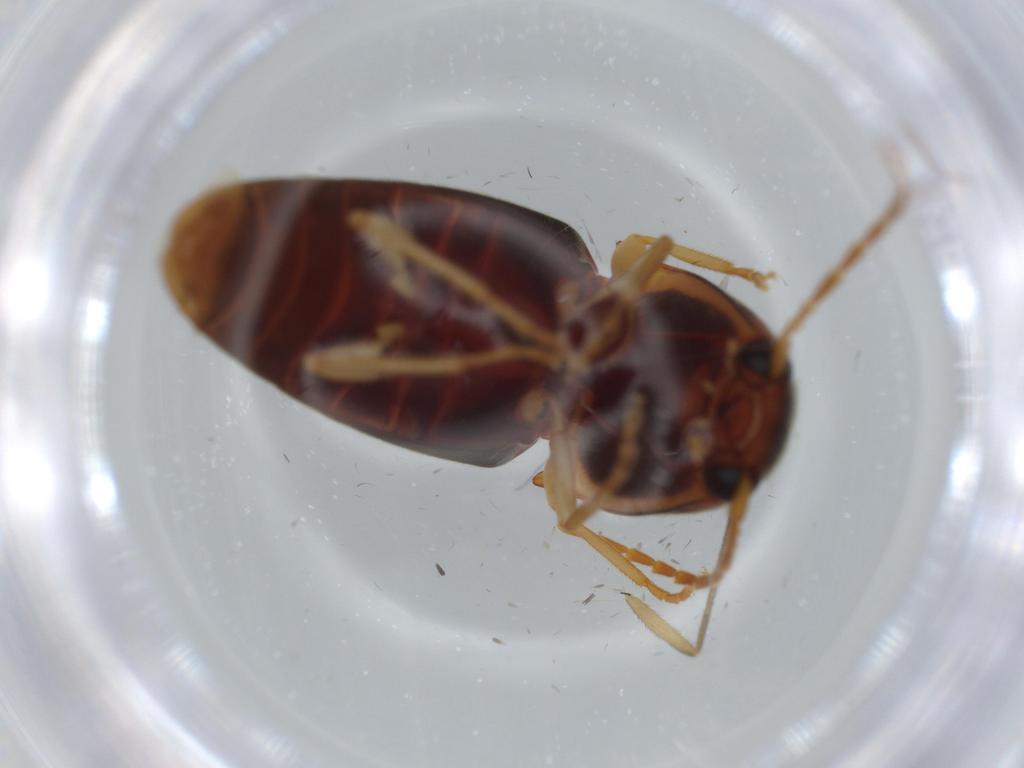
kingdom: Animalia
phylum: Arthropoda
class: Insecta
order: Coleoptera
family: Elateridae
